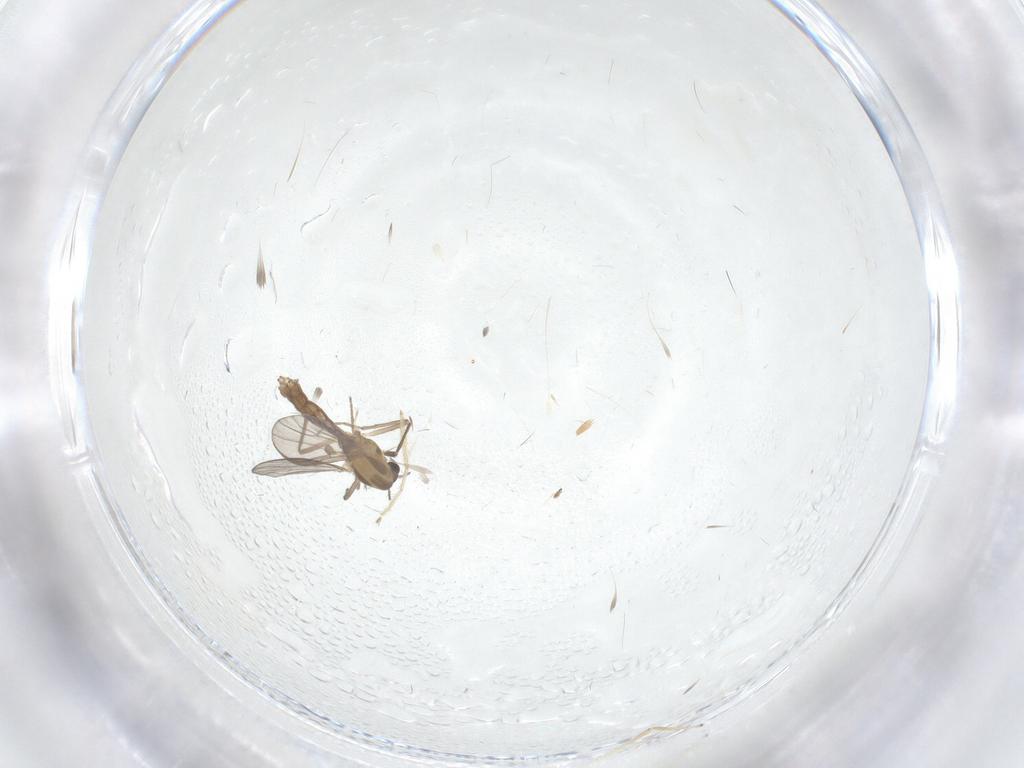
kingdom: Animalia
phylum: Arthropoda
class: Insecta
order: Diptera
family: Chironomidae
